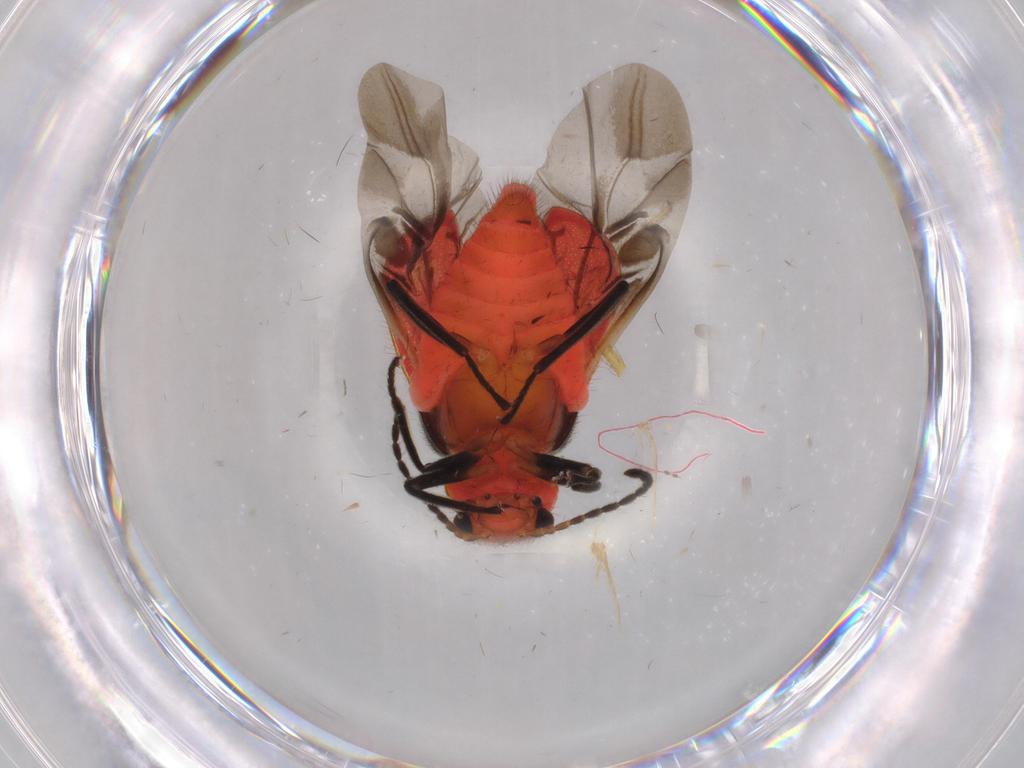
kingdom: Animalia
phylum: Arthropoda
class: Insecta
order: Coleoptera
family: Melyridae
